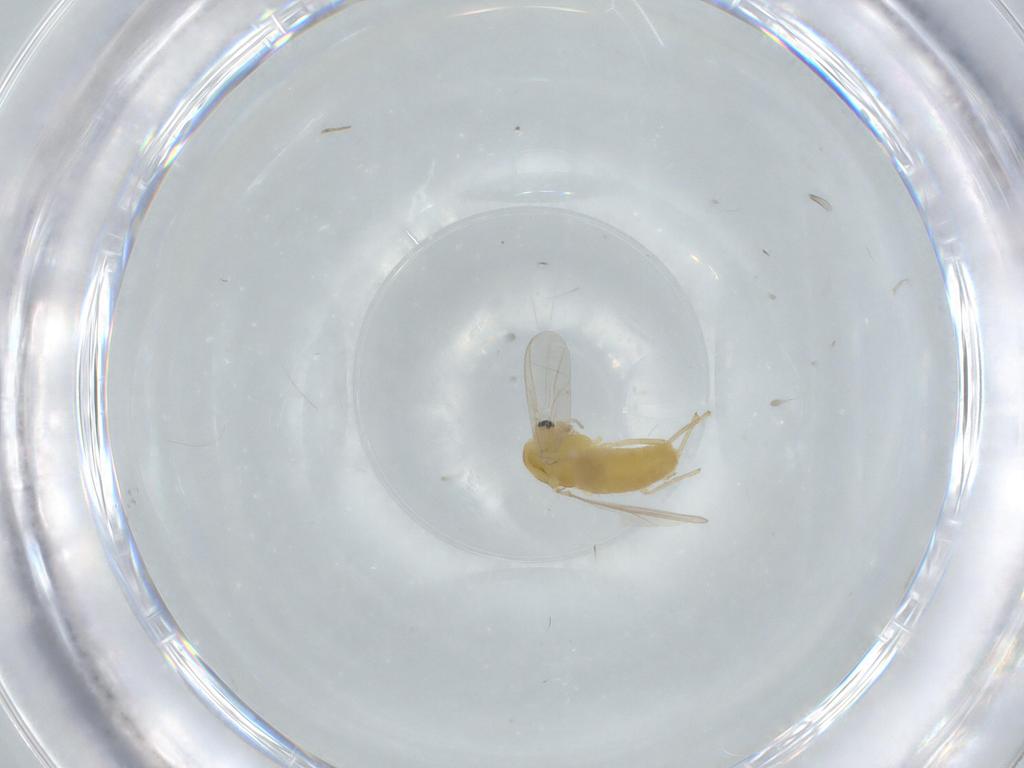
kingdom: Animalia
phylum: Arthropoda
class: Insecta
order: Diptera
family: Chironomidae
